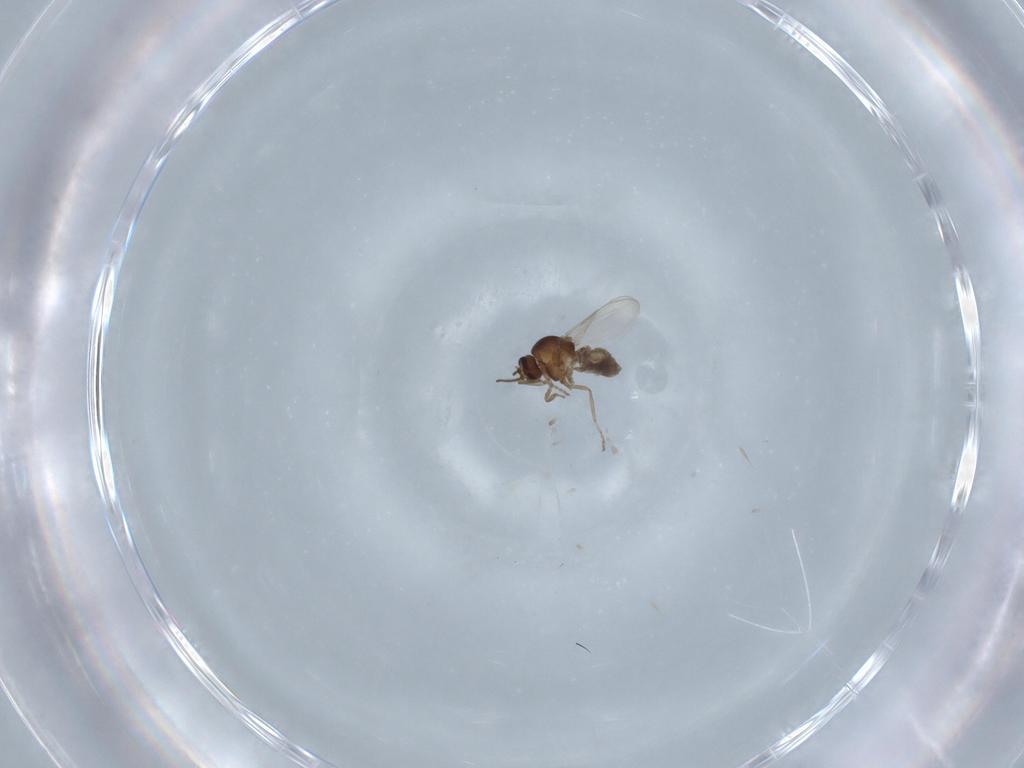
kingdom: Animalia
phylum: Arthropoda
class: Insecta
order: Diptera
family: Ceratopogonidae
